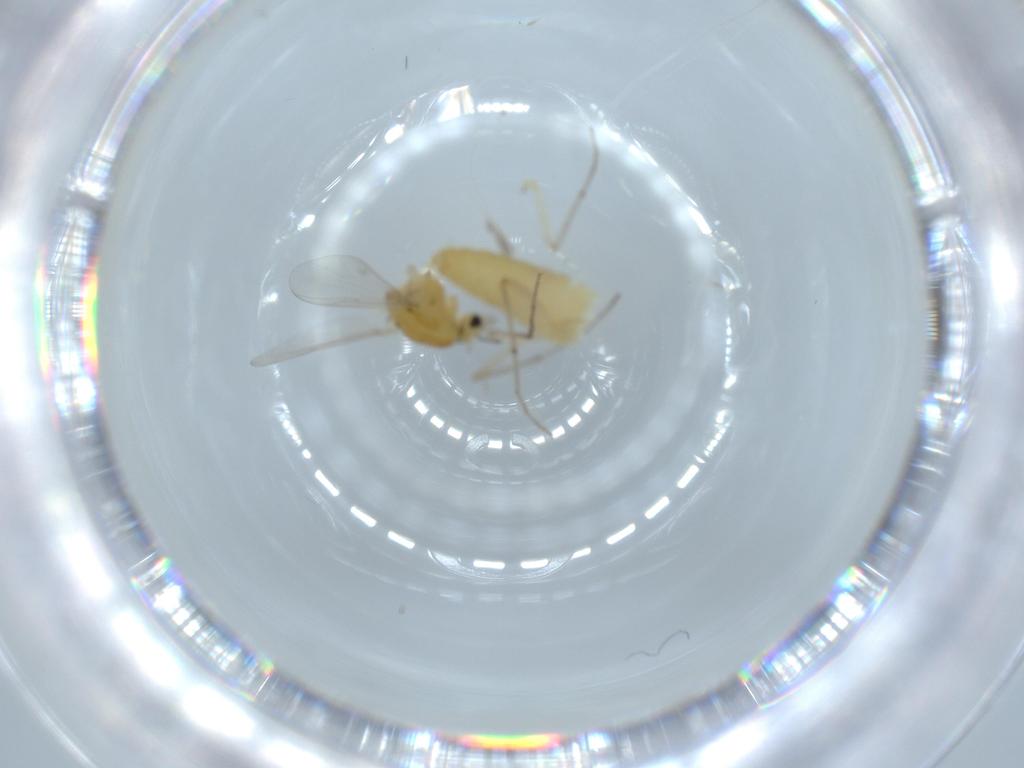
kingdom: Animalia
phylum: Arthropoda
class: Insecta
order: Diptera
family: Chironomidae
